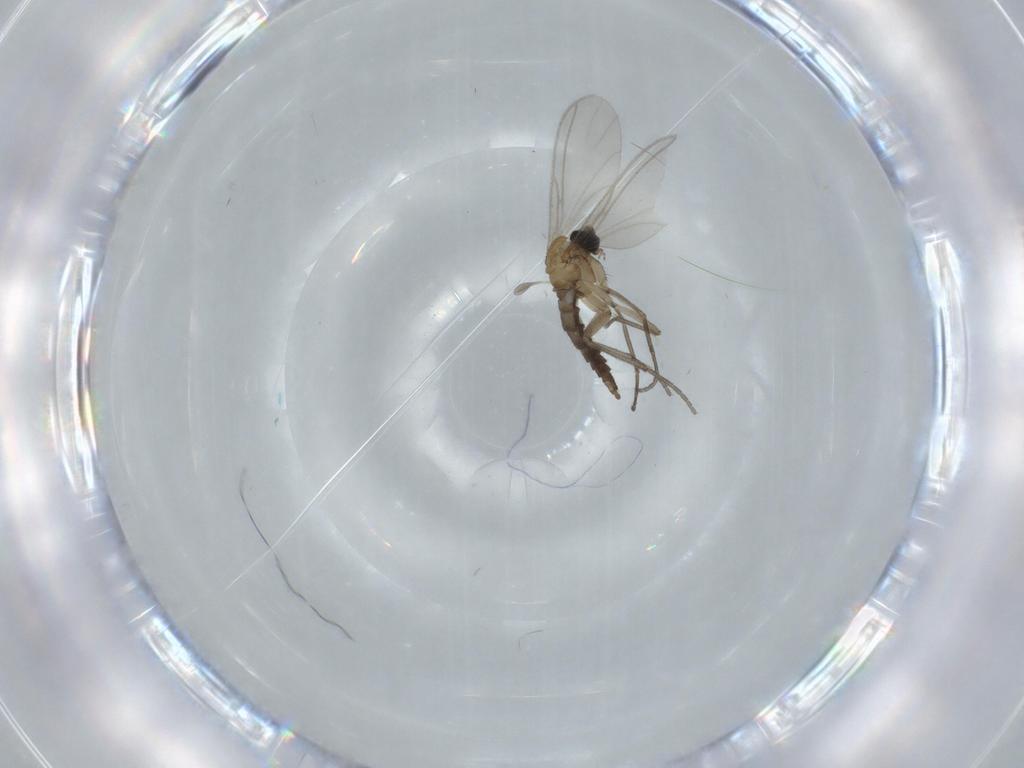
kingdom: Animalia
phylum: Arthropoda
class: Insecta
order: Diptera
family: Sciaridae
